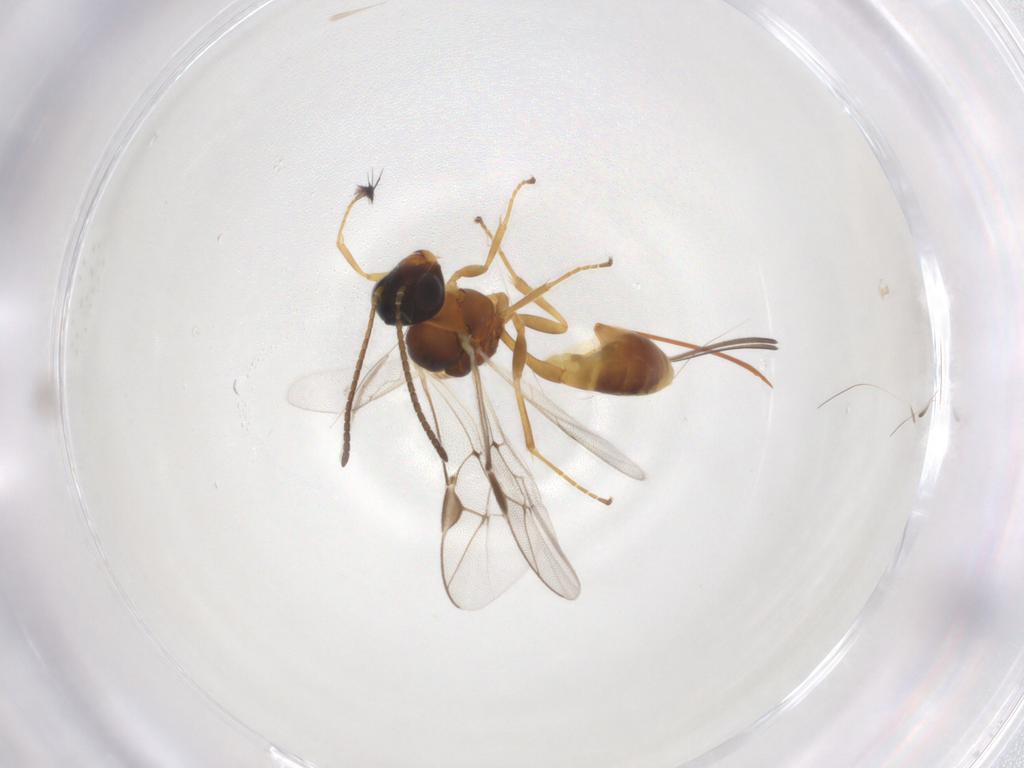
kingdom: Animalia
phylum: Arthropoda
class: Insecta
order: Hymenoptera
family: Ichneumonidae
